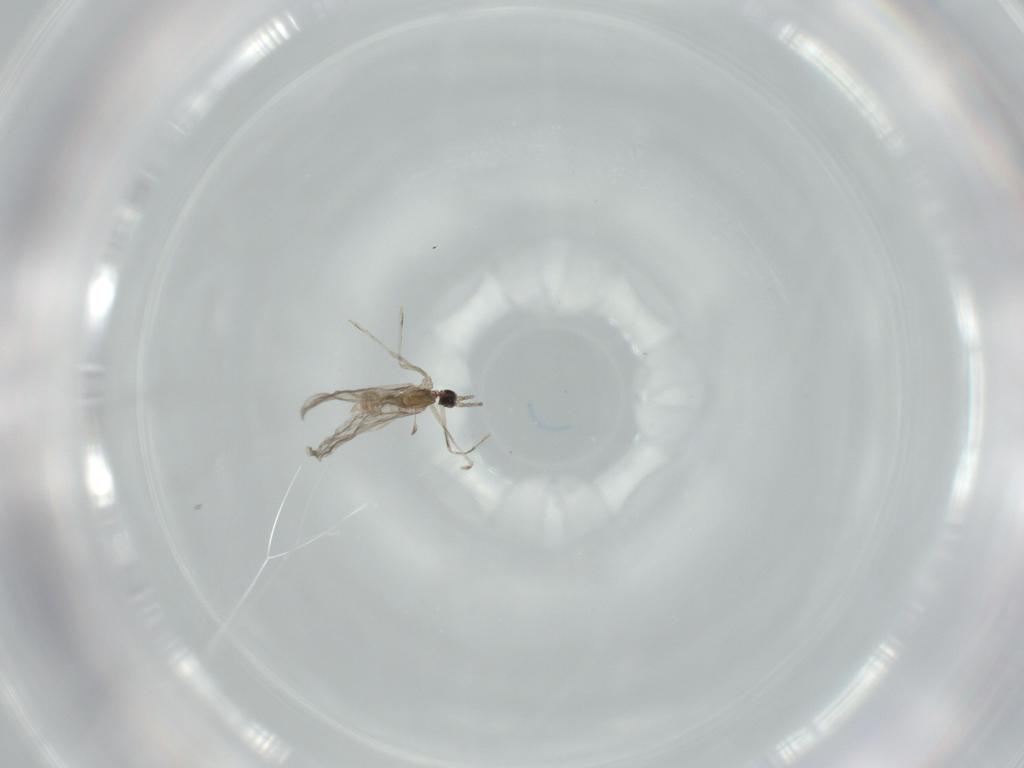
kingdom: Animalia
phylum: Arthropoda
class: Insecta
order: Diptera
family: Cecidomyiidae
